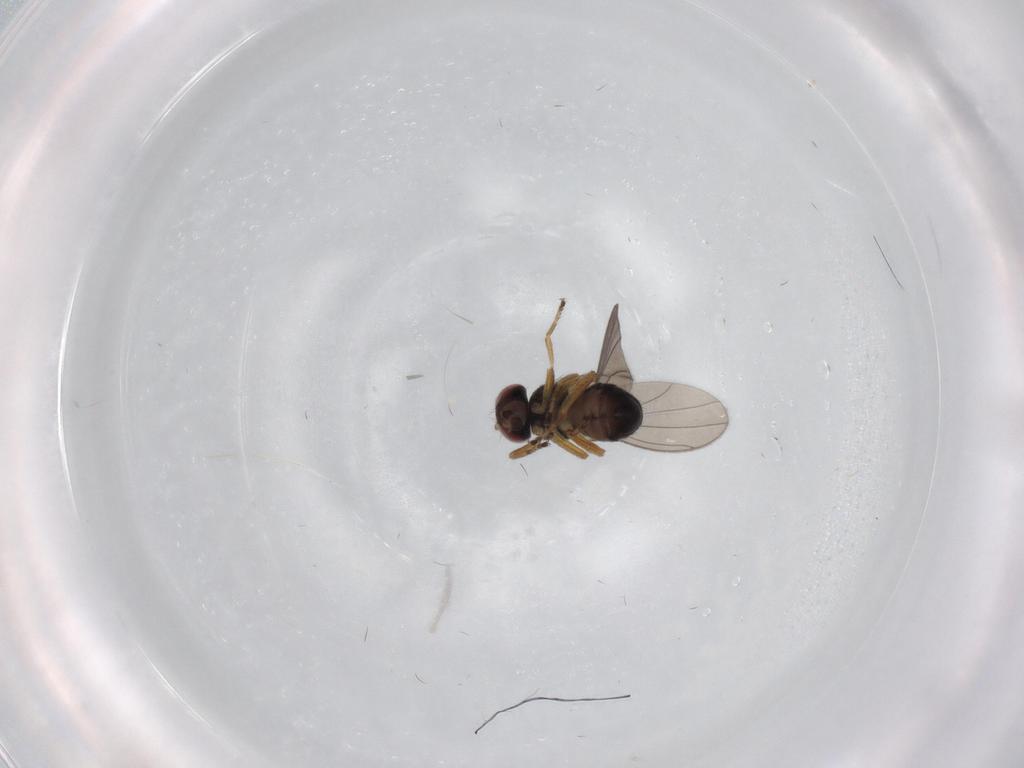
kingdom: Animalia
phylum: Arthropoda
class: Insecta
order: Diptera
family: Ephydridae
